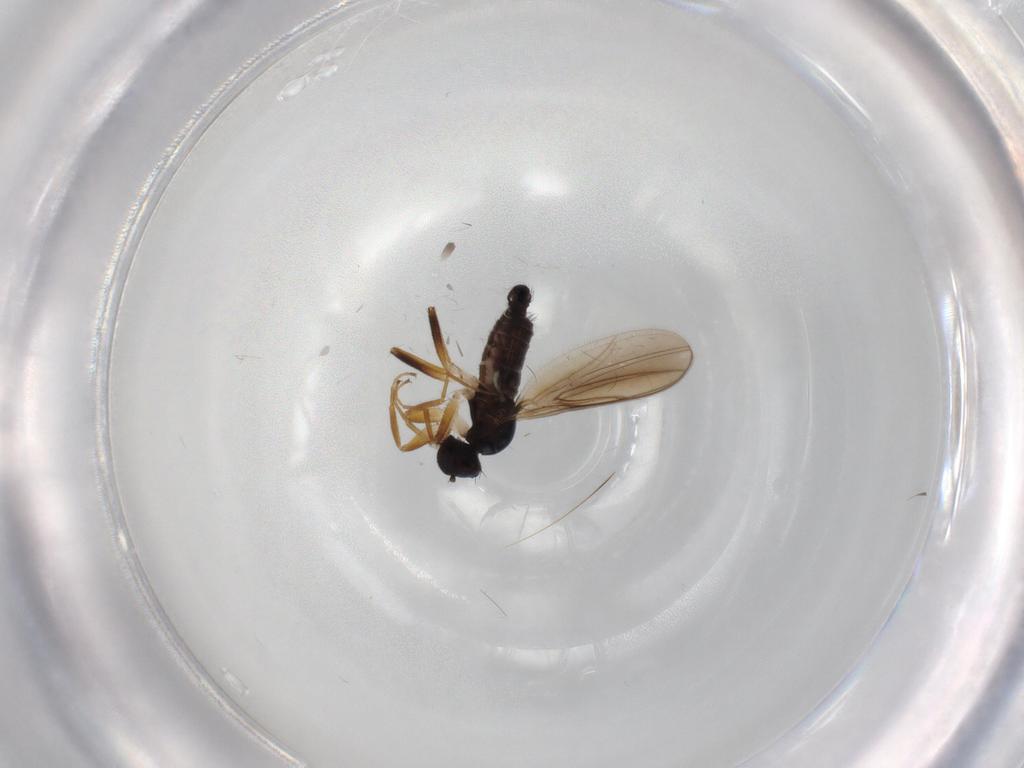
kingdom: Animalia
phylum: Arthropoda
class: Insecta
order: Diptera
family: Hybotidae
